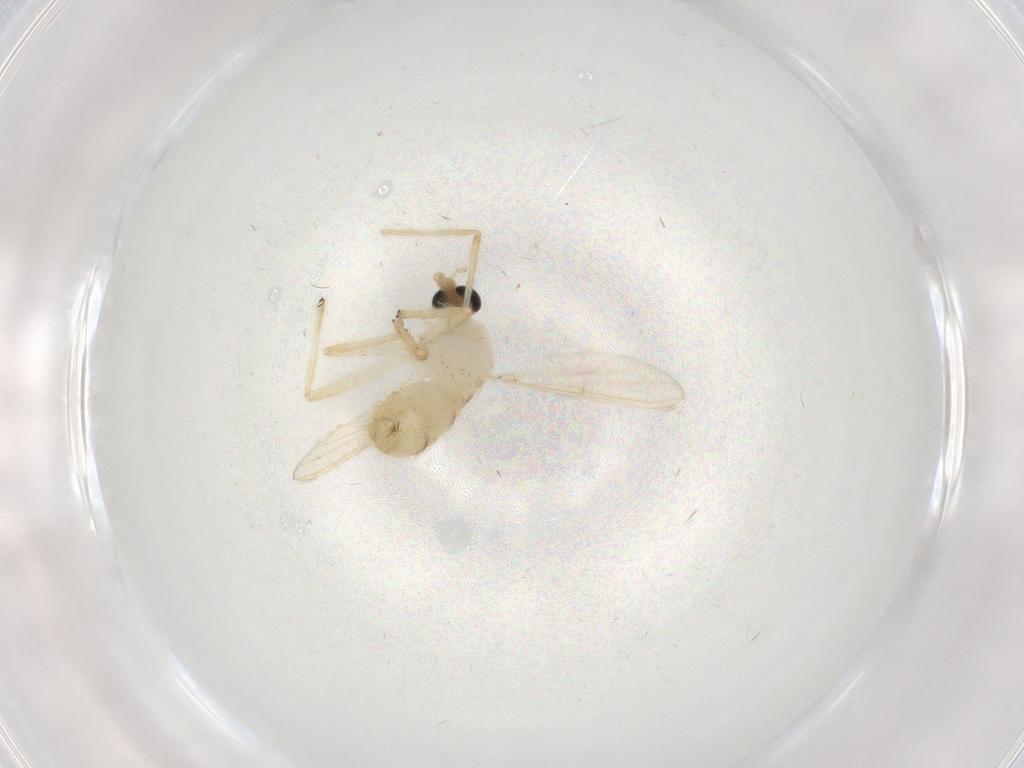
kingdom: Animalia
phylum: Arthropoda
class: Insecta
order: Diptera
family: Chironomidae
